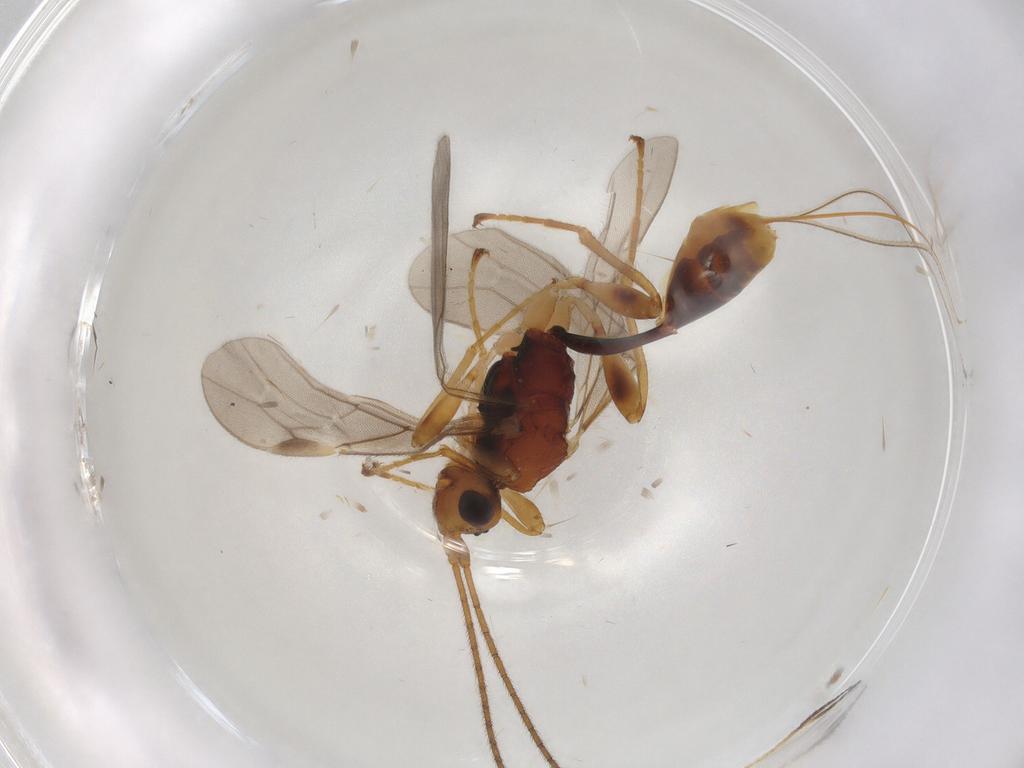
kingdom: Animalia
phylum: Arthropoda
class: Insecta
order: Hymenoptera
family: Braconidae
